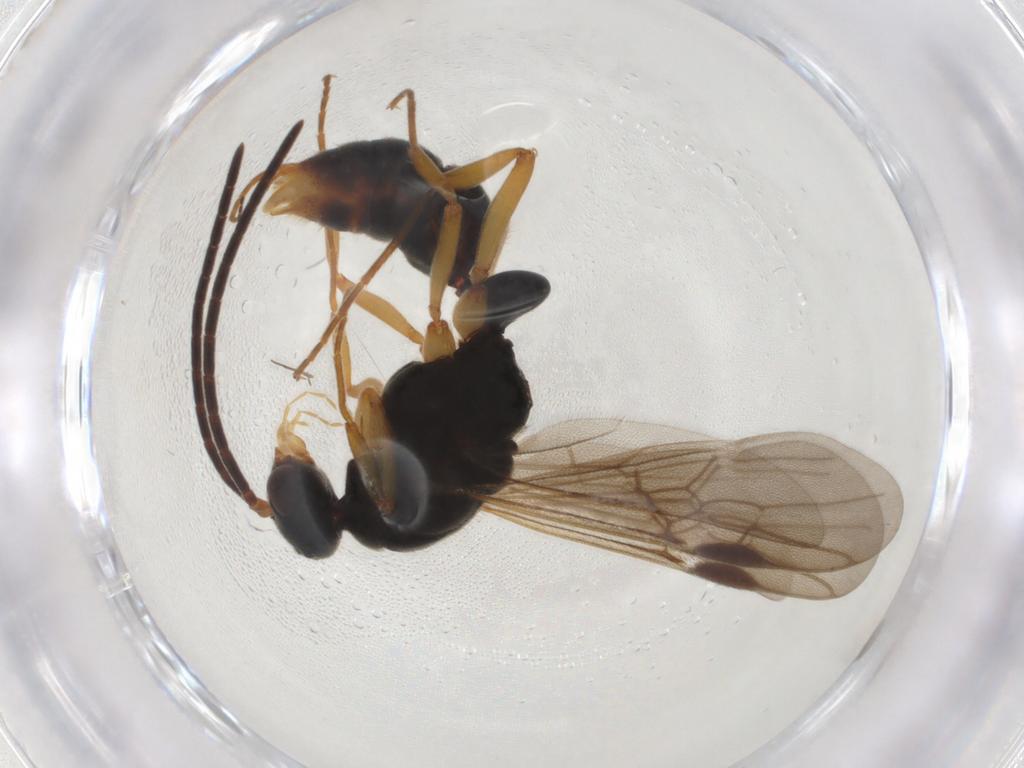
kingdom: Animalia
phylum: Arthropoda
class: Insecta
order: Hymenoptera
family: Formicidae
